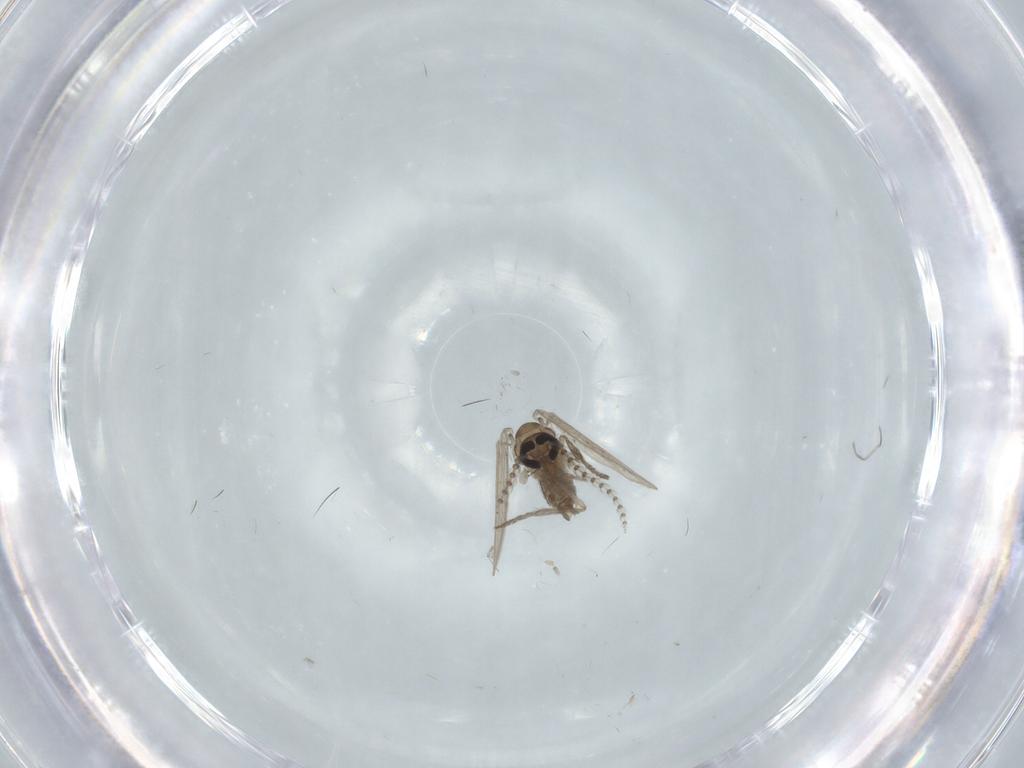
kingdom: Animalia
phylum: Arthropoda
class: Insecta
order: Diptera
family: Psychodidae
